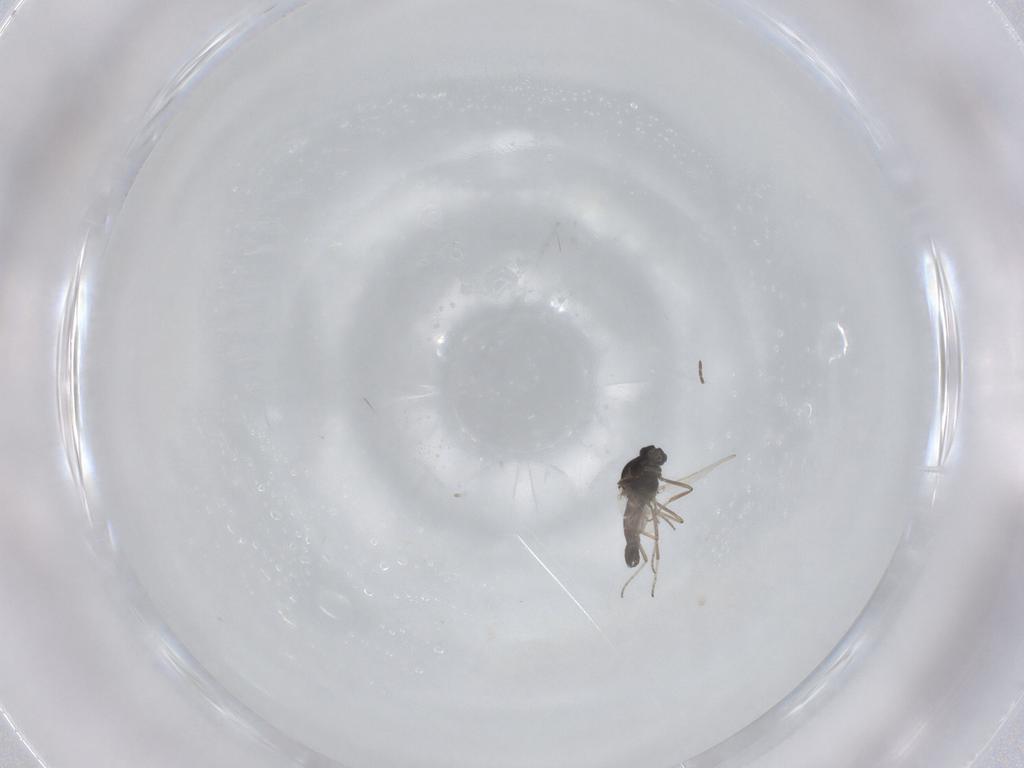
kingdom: Animalia
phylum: Arthropoda
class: Insecta
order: Diptera
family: Ceratopogonidae
